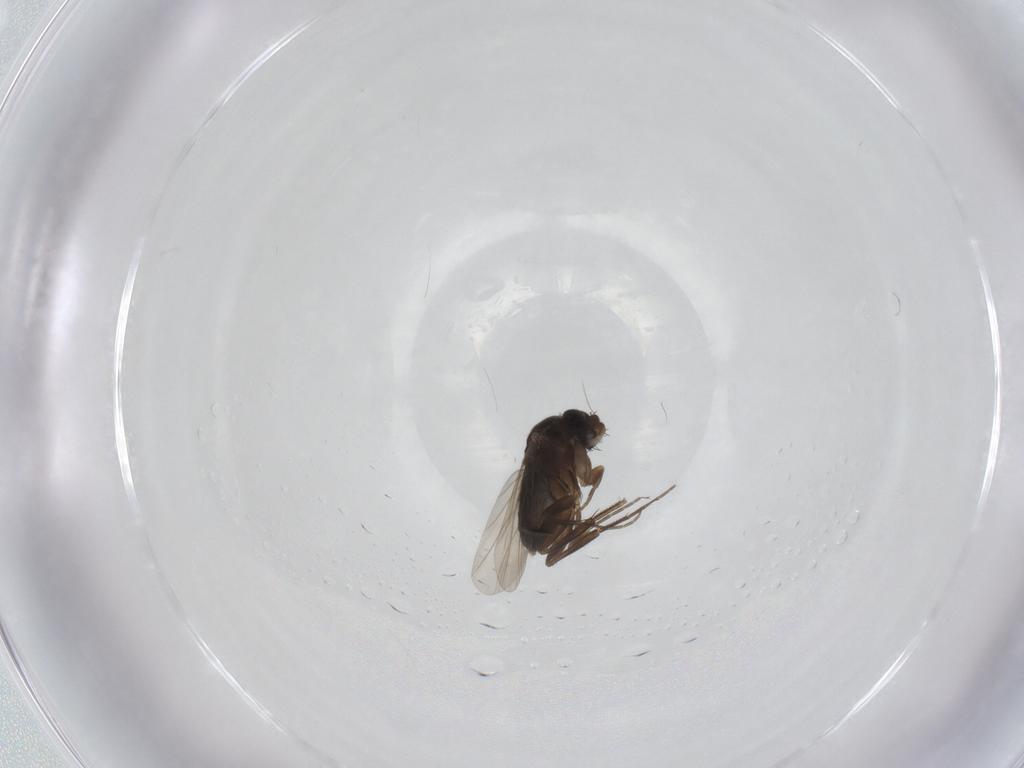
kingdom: Animalia
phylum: Arthropoda
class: Insecta
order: Diptera
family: Phoridae
